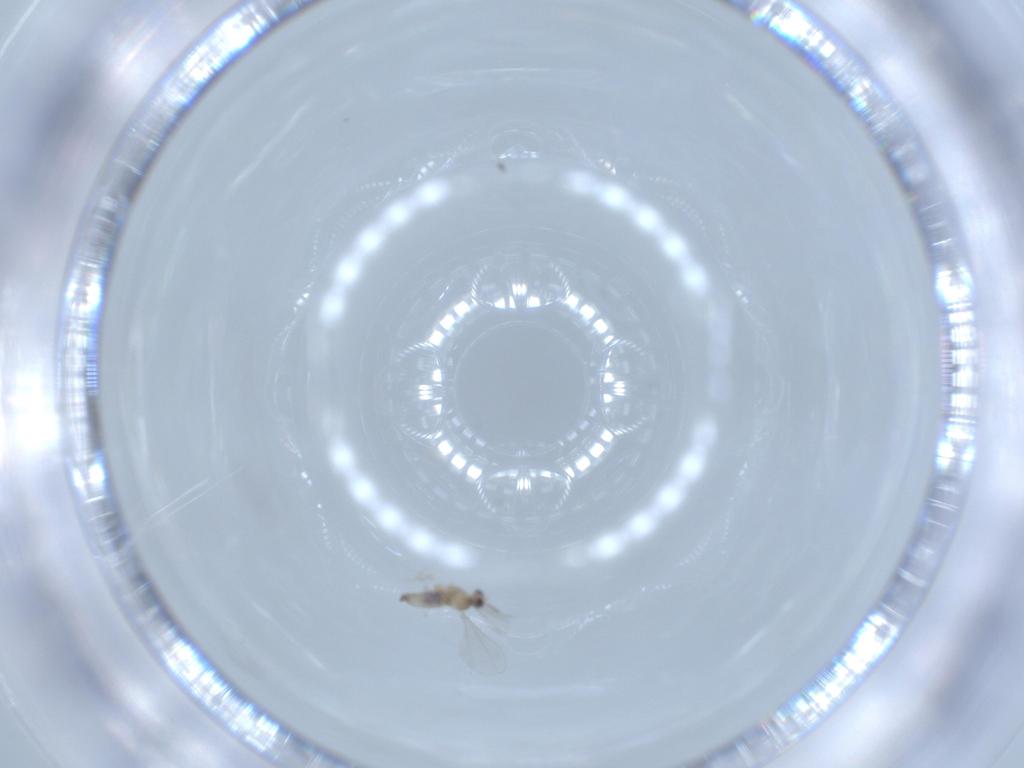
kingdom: Animalia
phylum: Arthropoda
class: Insecta
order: Diptera
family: Cecidomyiidae
